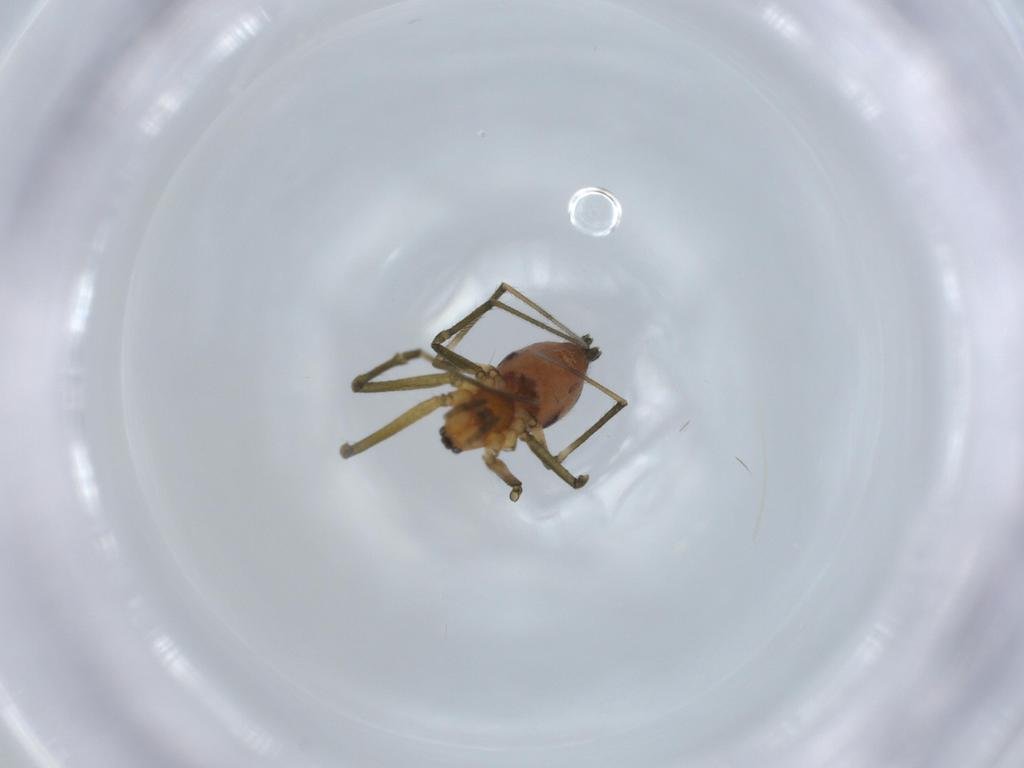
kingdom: Animalia
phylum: Arthropoda
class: Arachnida
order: Araneae
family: Linyphiidae
